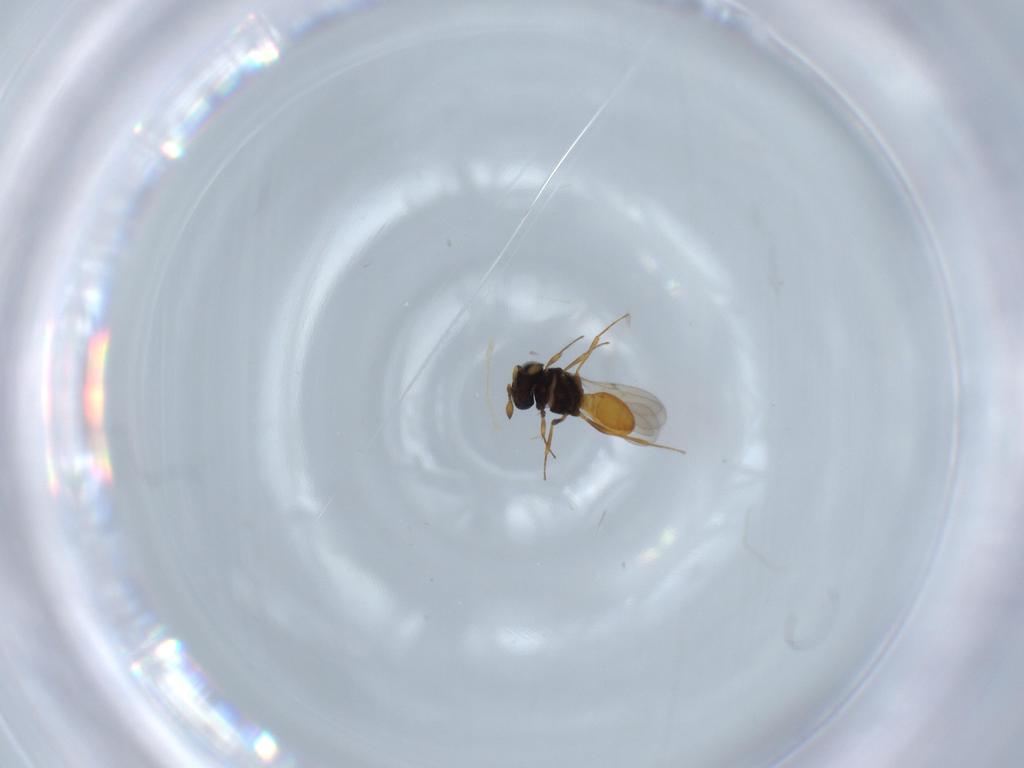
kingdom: Animalia
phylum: Arthropoda
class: Insecta
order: Hymenoptera
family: Scelionidae
